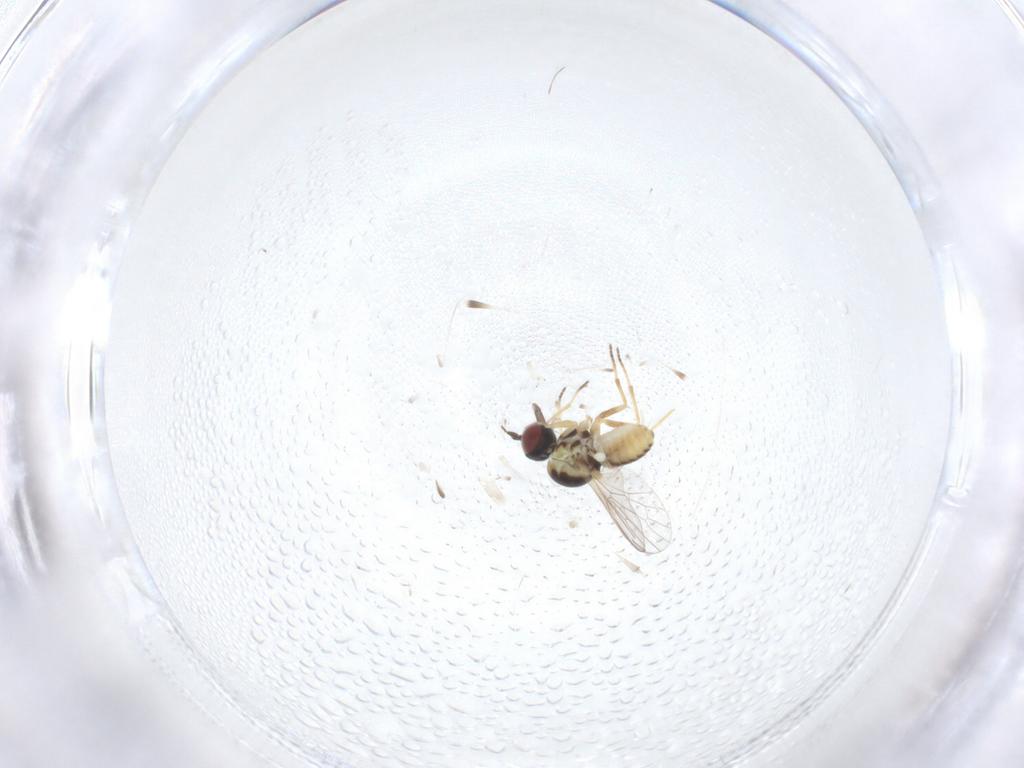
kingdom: Animalia
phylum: Arthropoda
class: Insecta
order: Diptera
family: Mythicomyiidae
